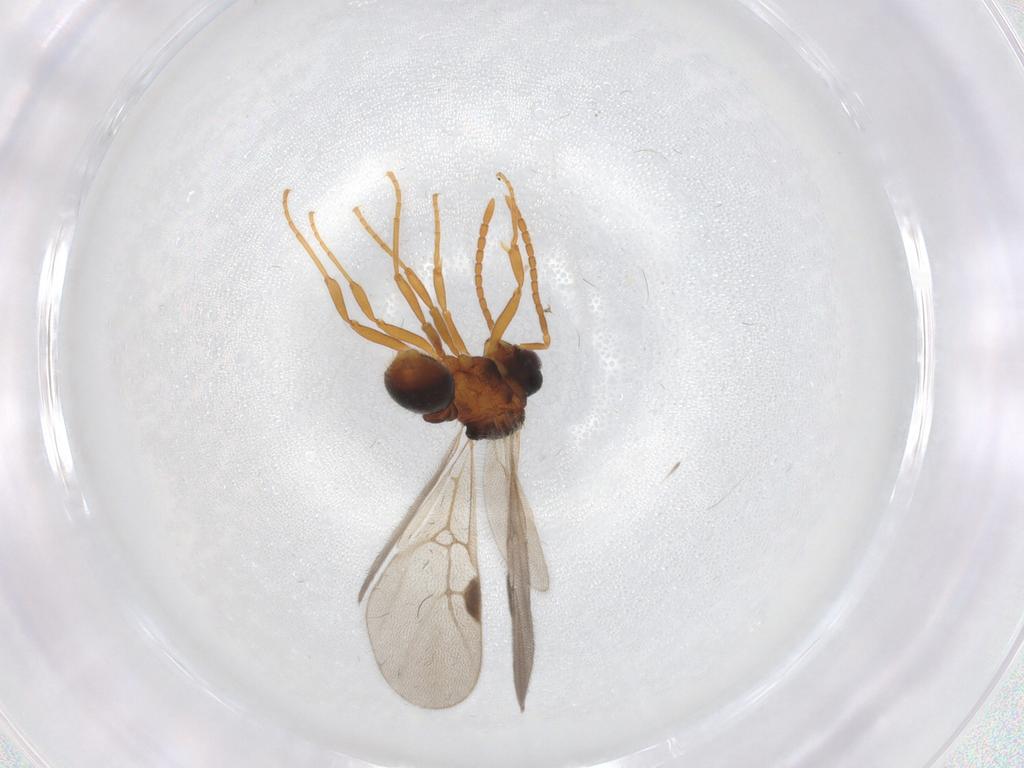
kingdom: Animalia
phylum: Arthropoda
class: Insecta
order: Hymenoptera
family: Formicidae
